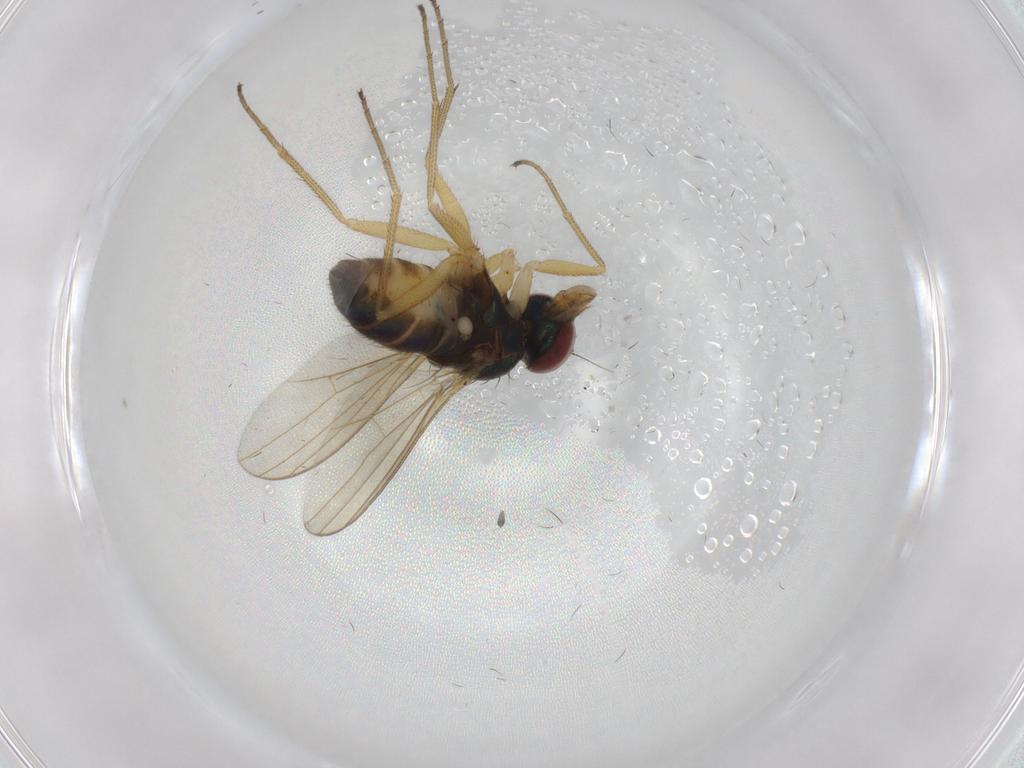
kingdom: Animalia
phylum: Arthropoda
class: Insecta
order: Diptera
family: Dolichopodidae
